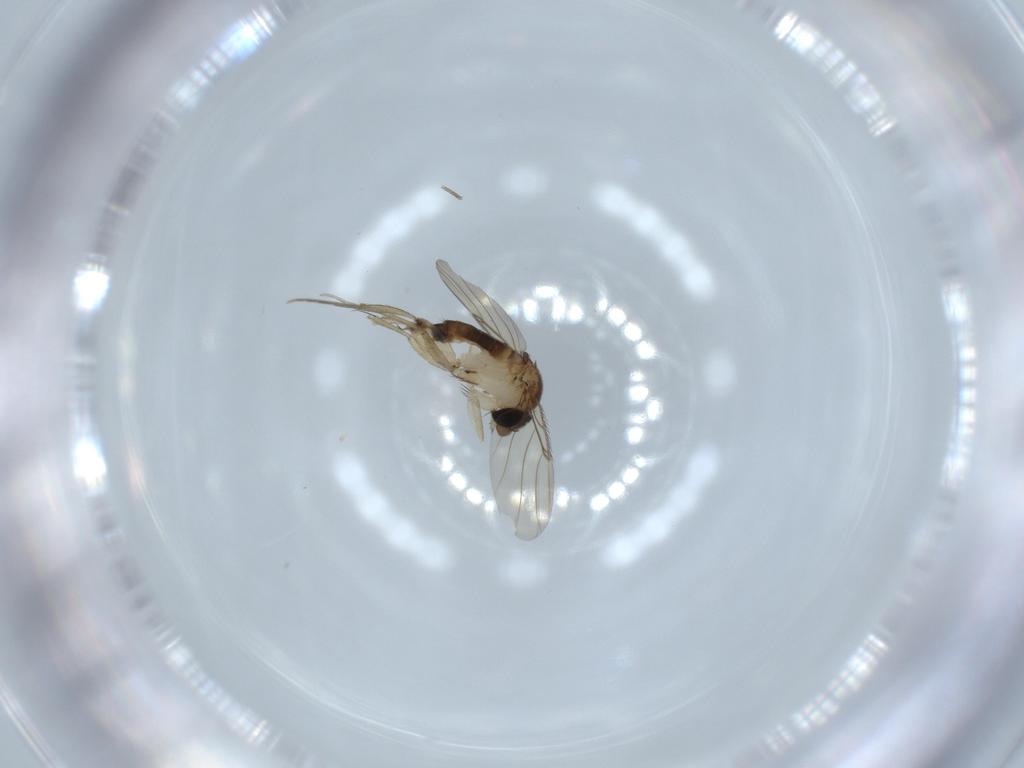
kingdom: Animalia
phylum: Arthropoda
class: Insecta
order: Diptera
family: Phoridae
